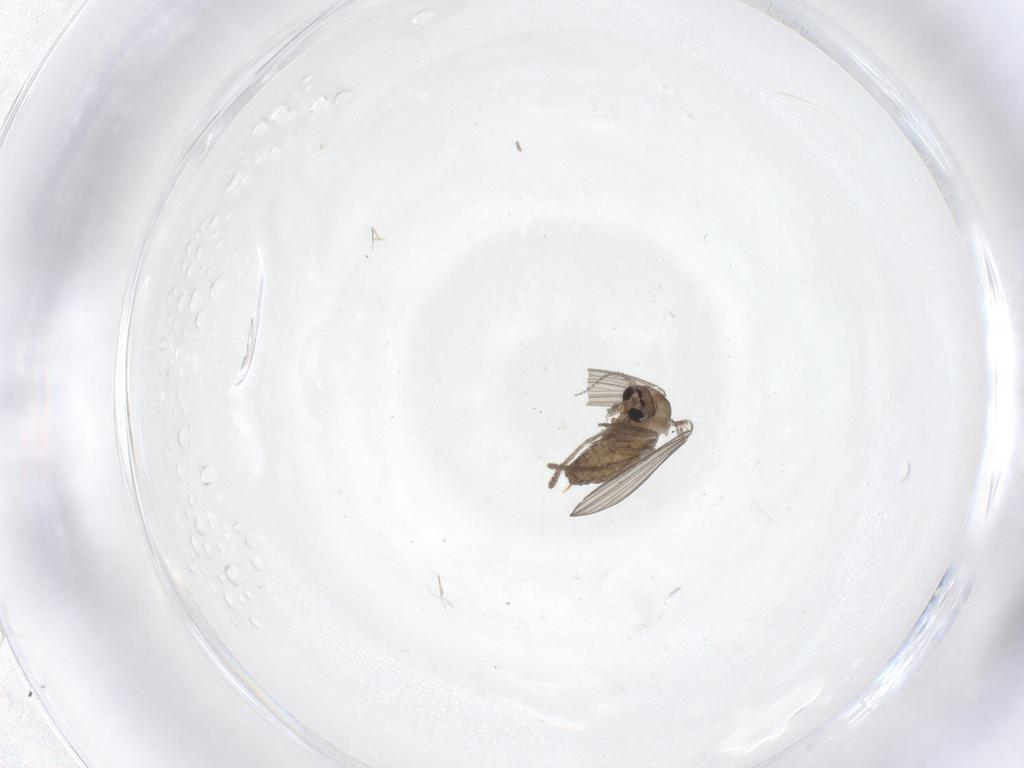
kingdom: Animalia
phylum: Arthropoda
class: Insecta
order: Diptera
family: Psychodidae
